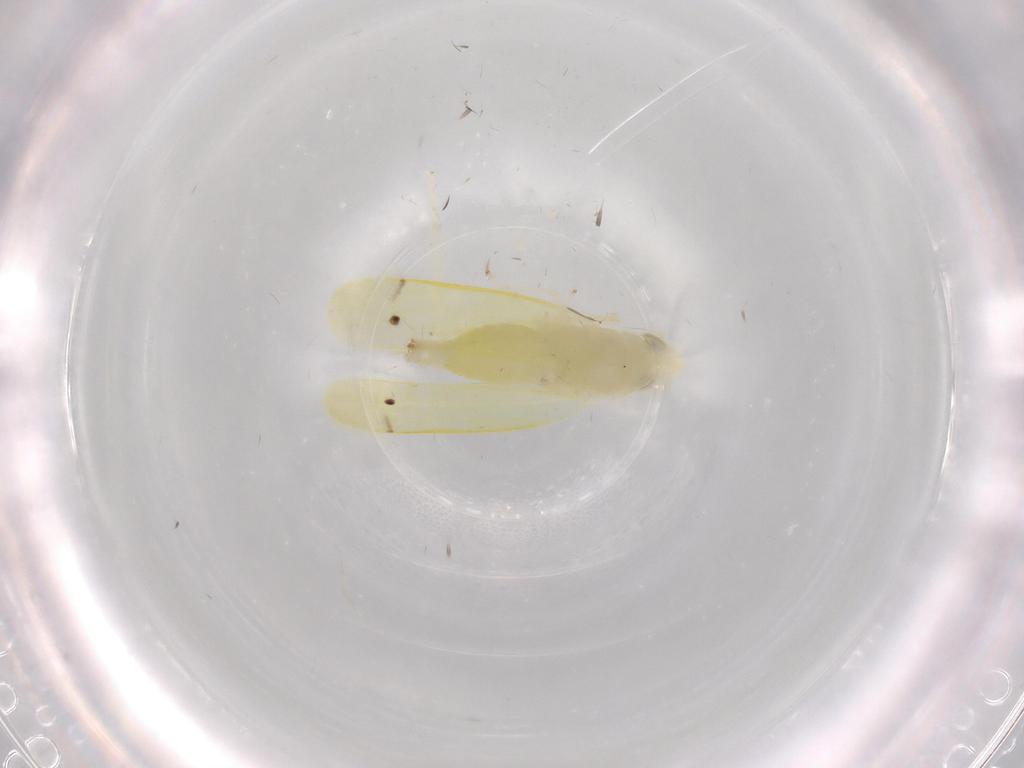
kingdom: Animalia
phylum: Arthropoda
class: Insecta
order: Hemiptera
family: Cicadellidae
